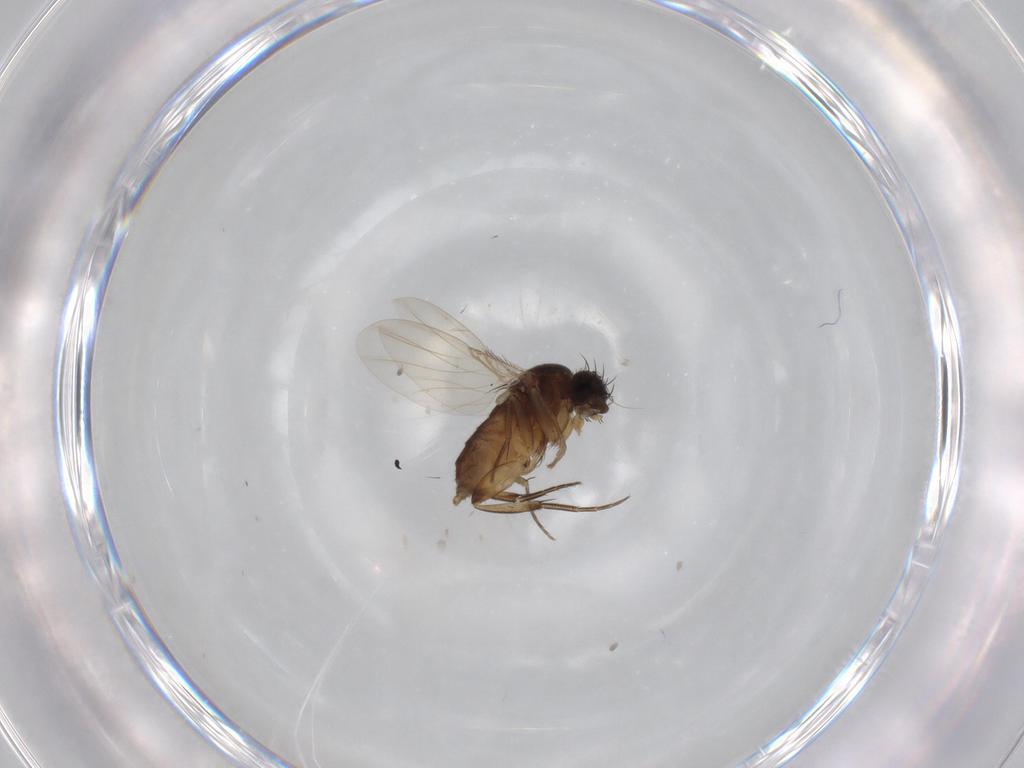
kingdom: Animalia
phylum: Arthropoda
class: Insecta
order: Diptera
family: Phoridae
